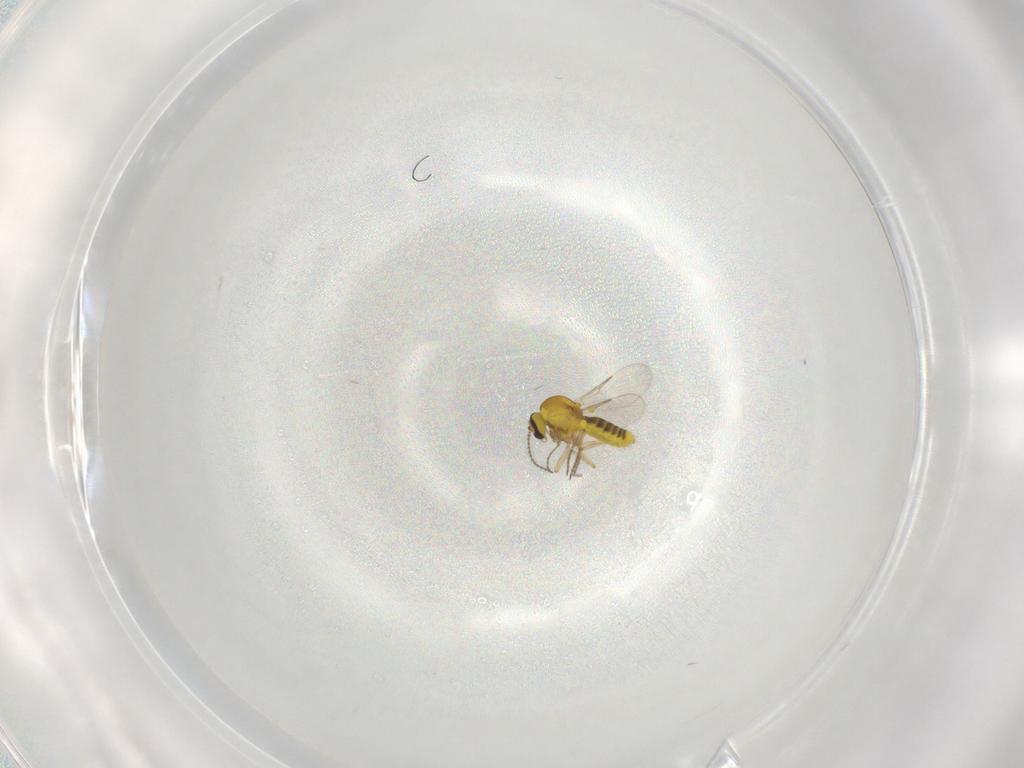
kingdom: Animalia
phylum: Arthropoda
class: Insecta
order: Diptera
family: Ceratopogonidae
